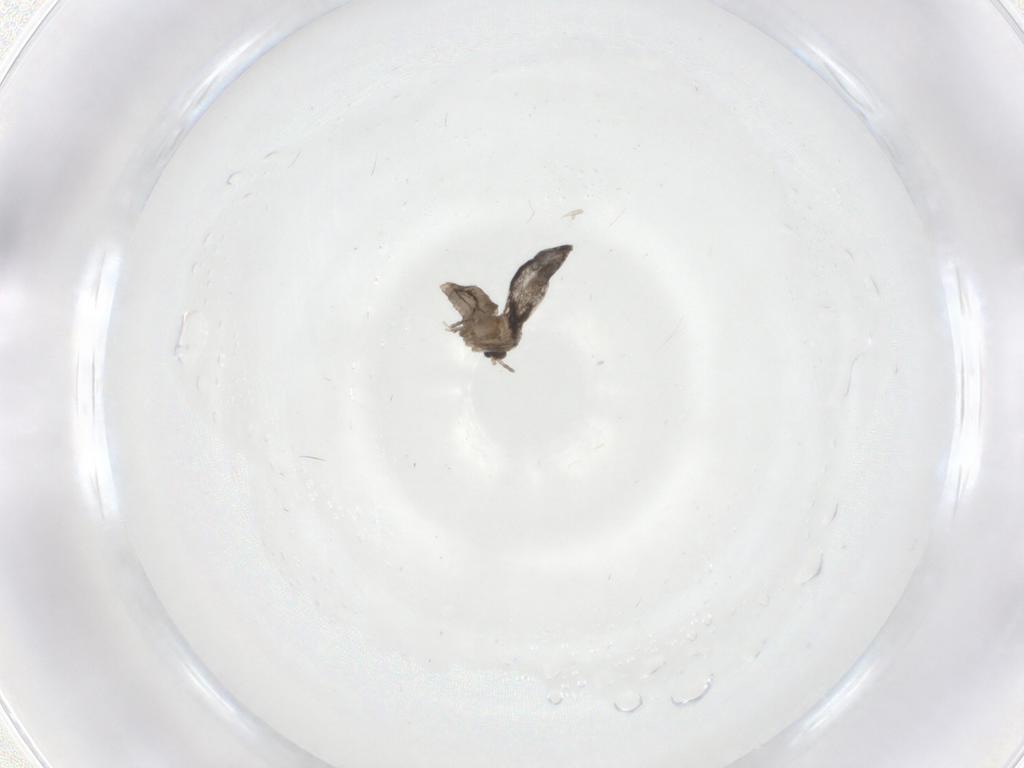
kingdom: Animalia
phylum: Arthropoda
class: Insecta
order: Diptera
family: Cecidomyiidae
